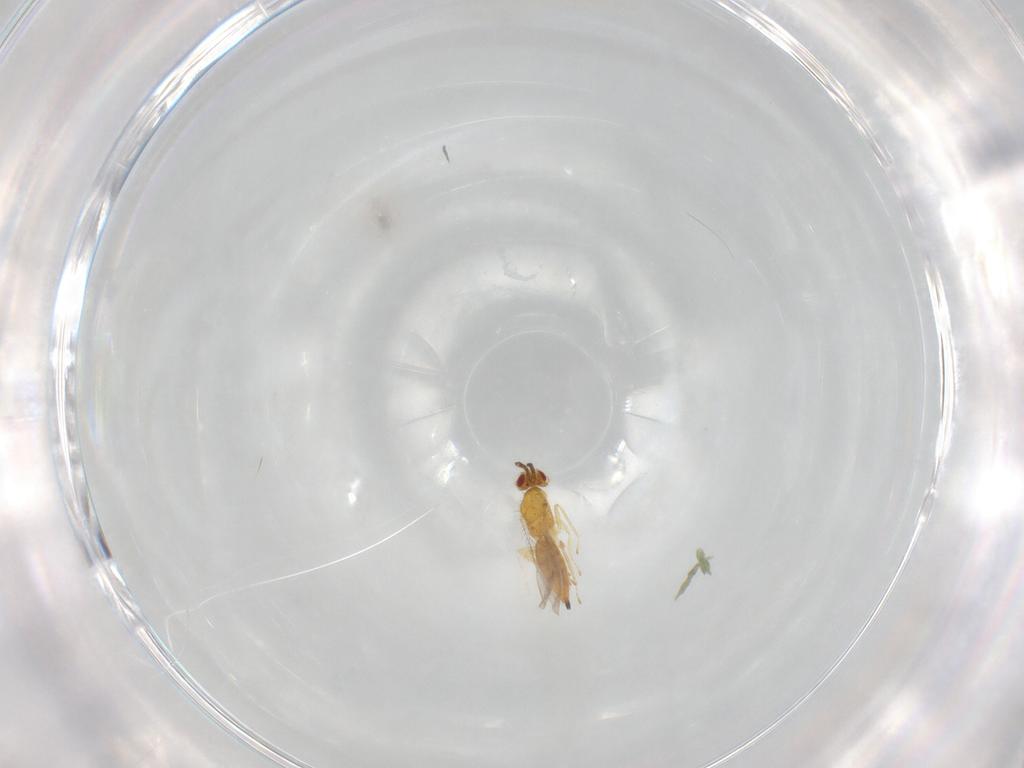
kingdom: Animalia
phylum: Arthropoda
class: Insecta
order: Hymenoptera
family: Eulophidae
